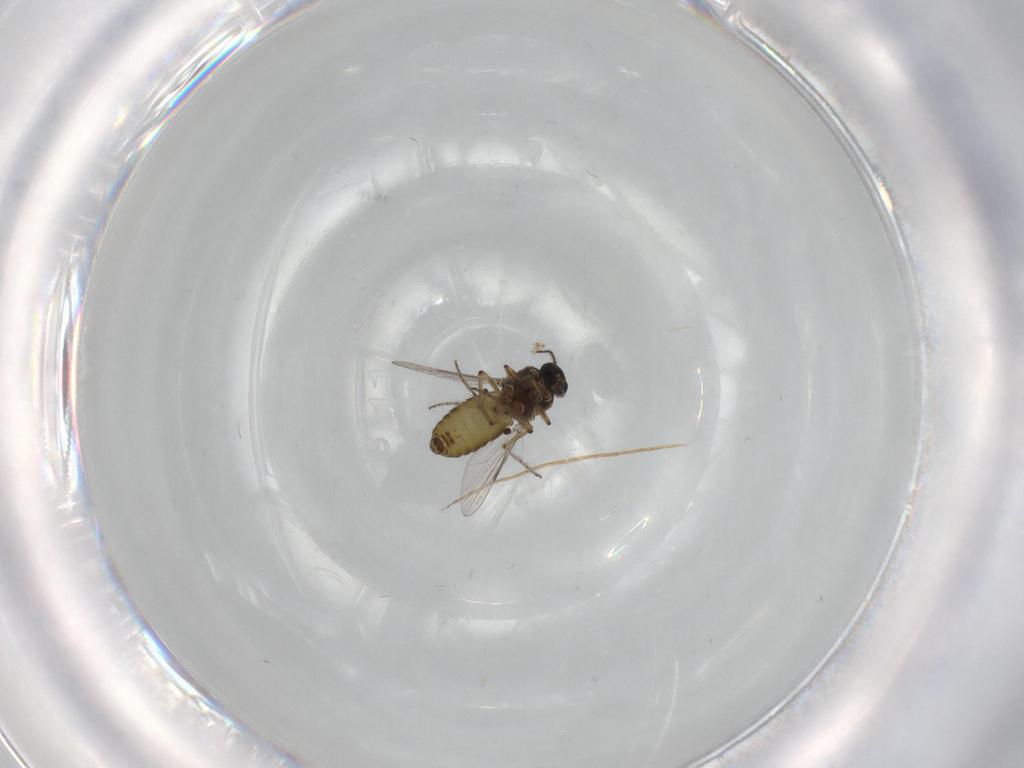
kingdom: Animalia
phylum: Arthropoda
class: Insecta
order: Diptera
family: Ceratopogonidae
